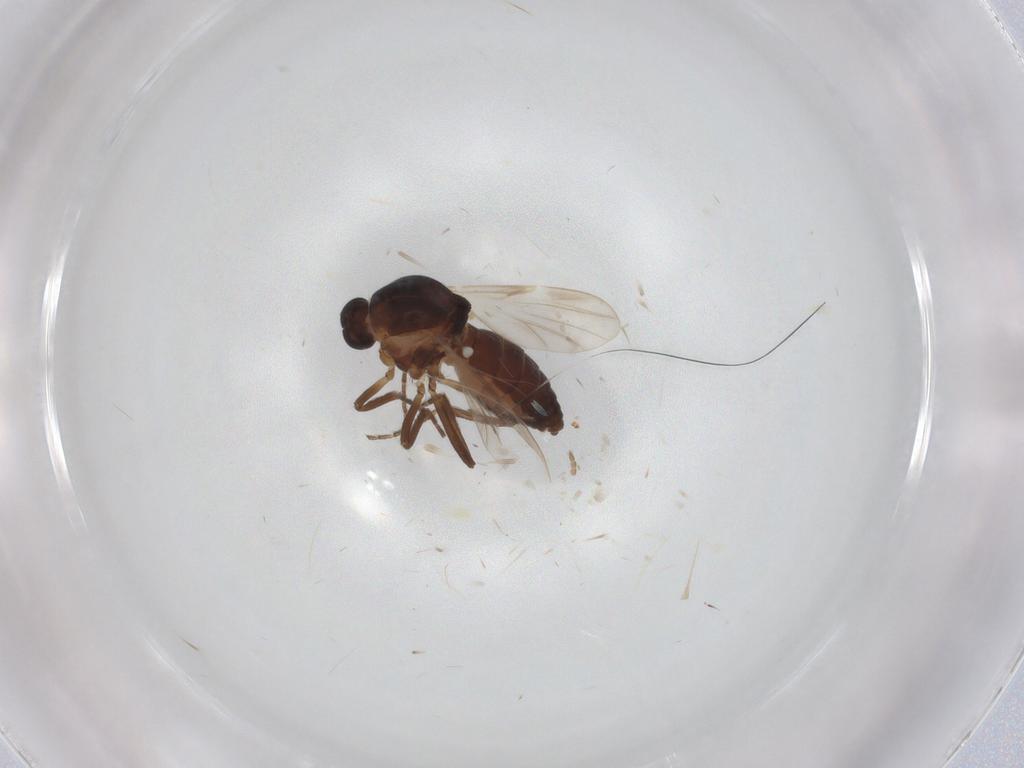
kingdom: Animalia
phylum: Arthropoda
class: Insecta
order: Diptera
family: Ceratopogonidae
